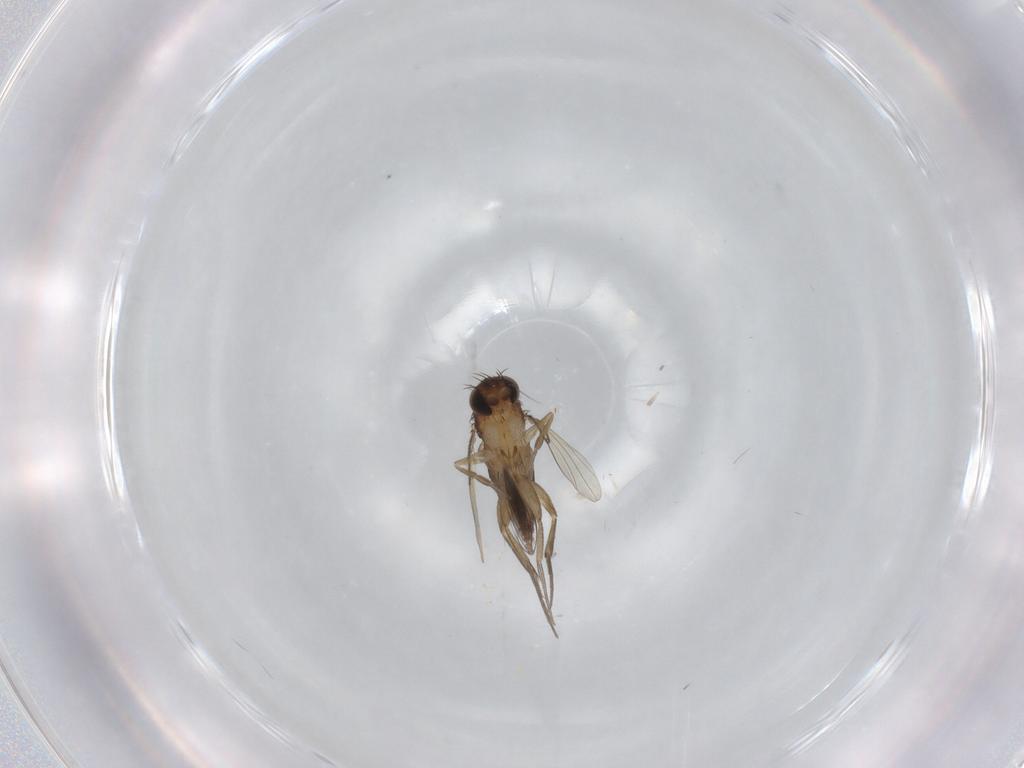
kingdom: Animalia
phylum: Arthropoda
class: Insecta
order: Diptera
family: Phoridae
